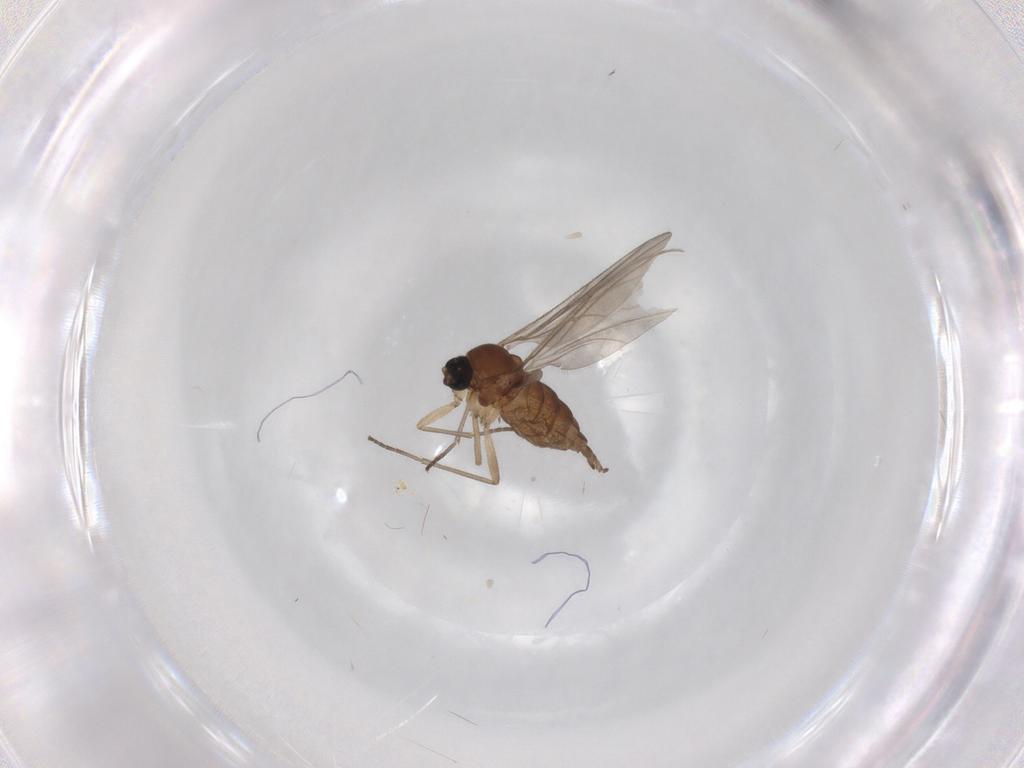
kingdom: Animalia
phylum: Arthropoda
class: Insecta
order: Diptera
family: Sciaridae
